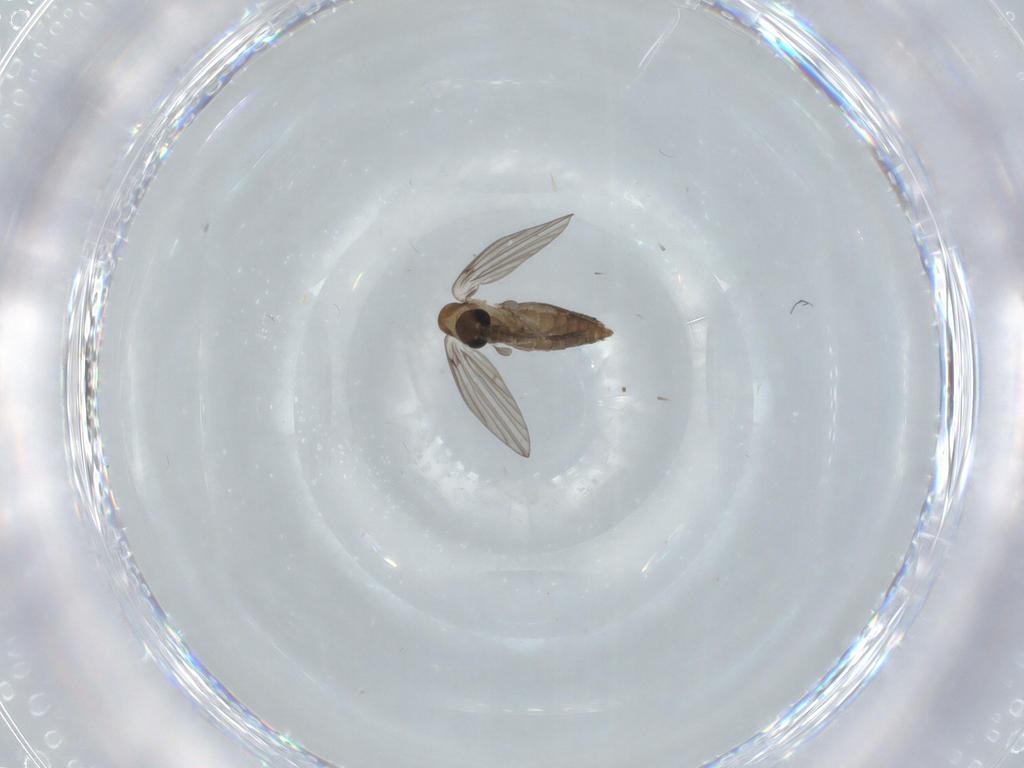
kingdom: Animalia
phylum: Arthropoda
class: Insecta
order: Diptera
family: Psychodidae
